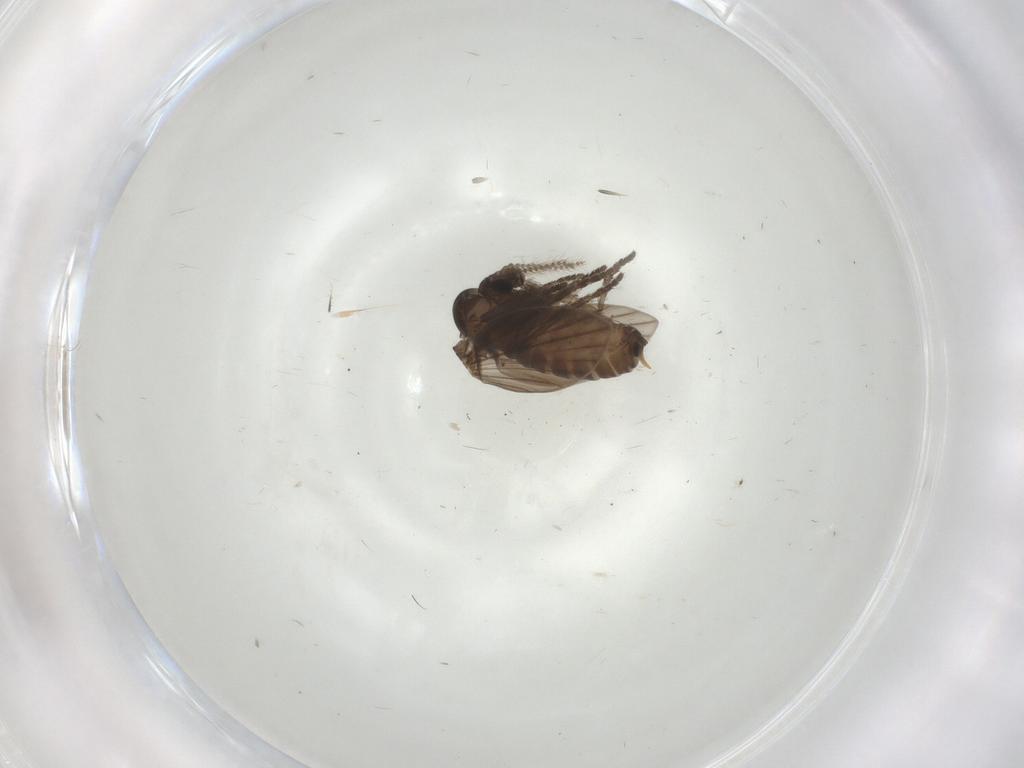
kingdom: Animalia
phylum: Arthropoda
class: Insecta
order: Diptera
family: Psychodidae
